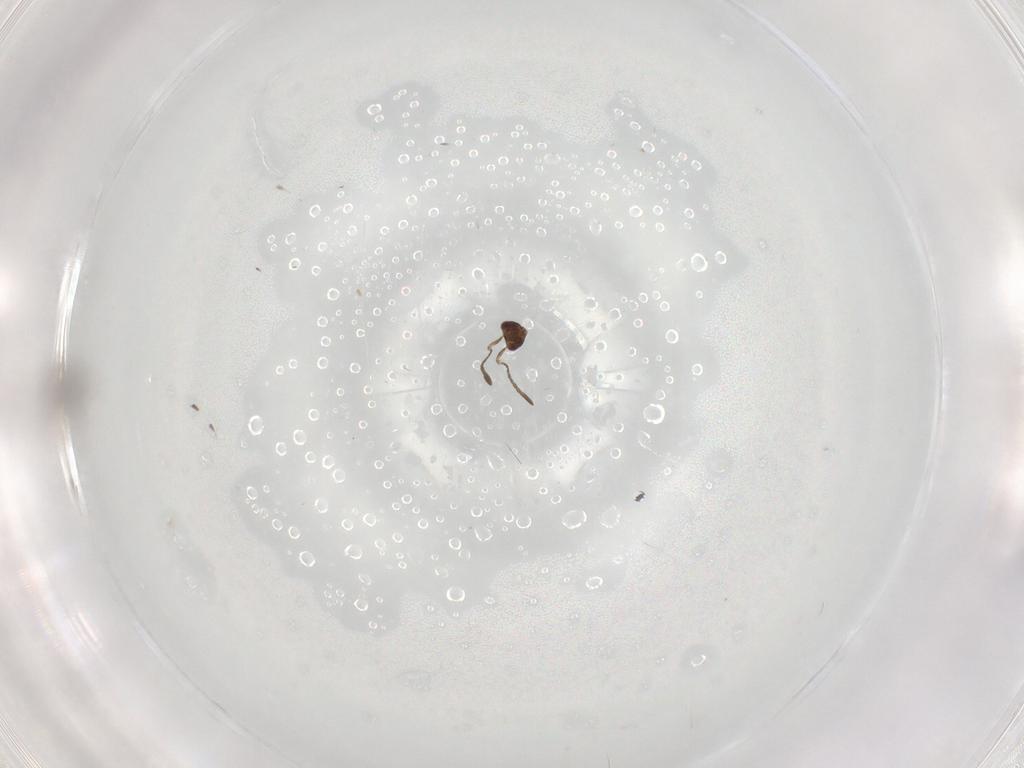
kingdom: Animalia
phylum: Arthropoda
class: Insecta
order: Hymenoptera
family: Mymaridae
